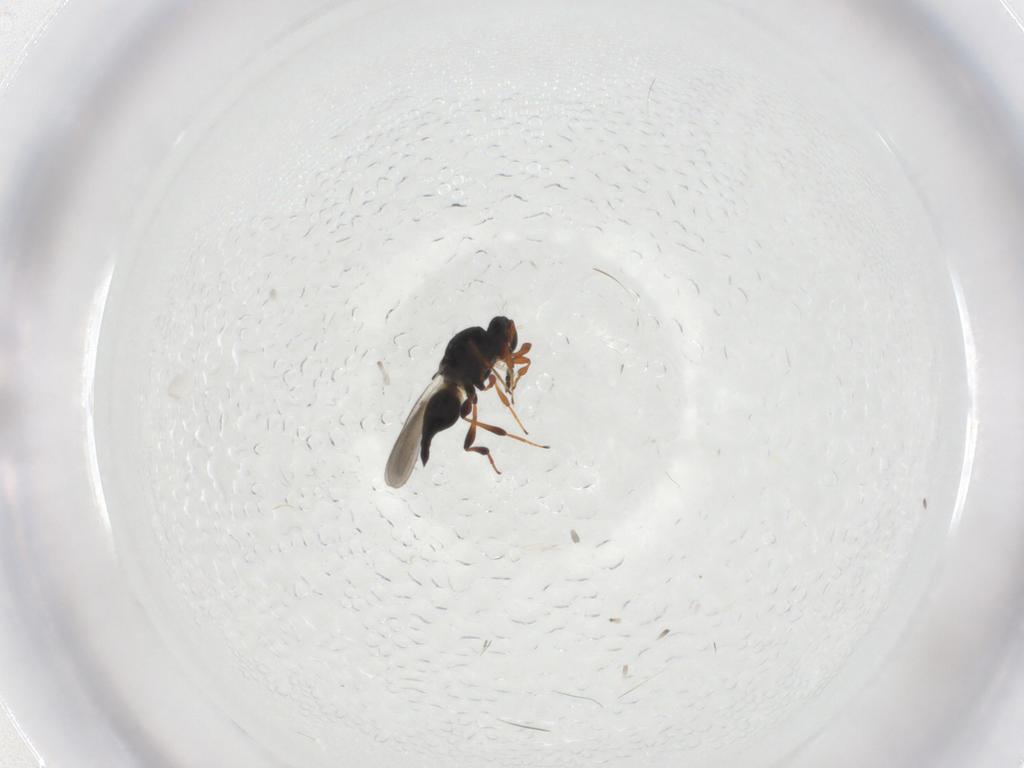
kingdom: Animalia
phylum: Arthropoda
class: Insecta
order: Hymenoptera
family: Platygastridae
